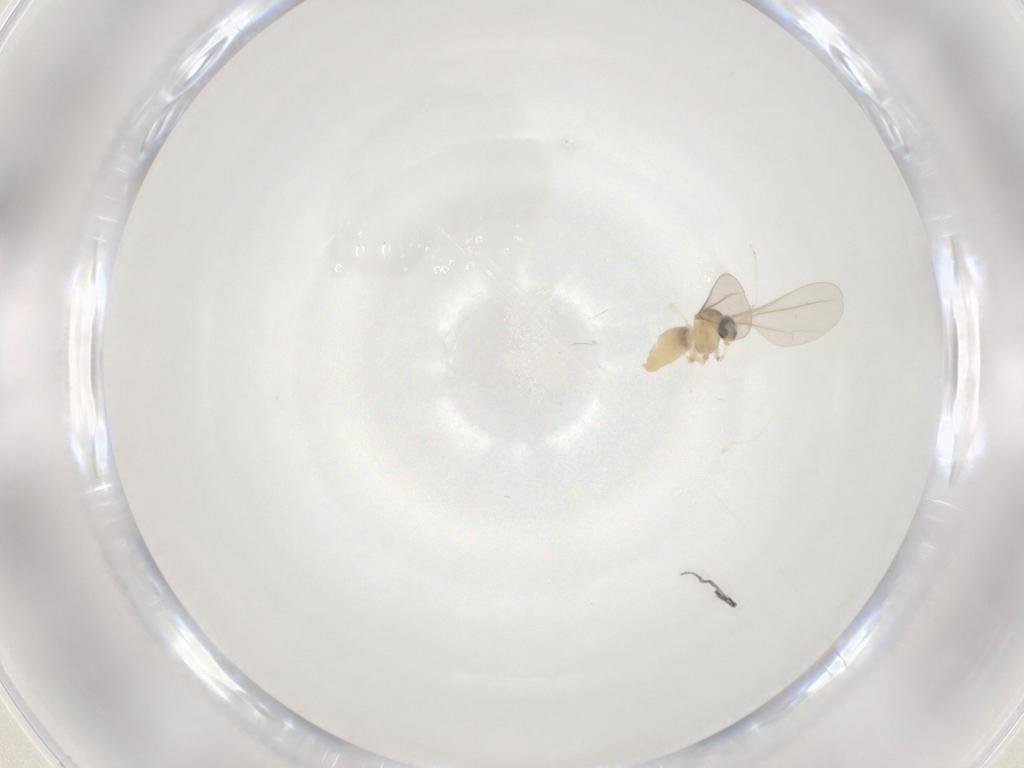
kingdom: Animalia
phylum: Arthropoda
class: Insecta
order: Diptera
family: Cecidomyiidae
